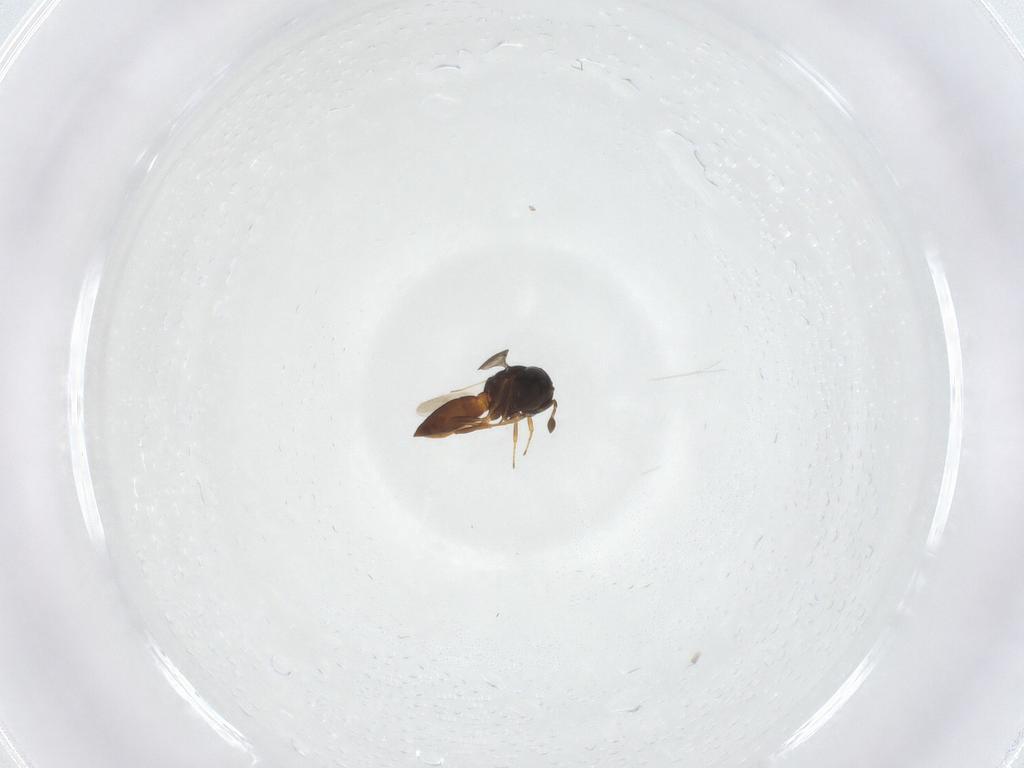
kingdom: Animalia
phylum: Arthropoda
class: Insecta
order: Hymenoptera
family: Scelionidae
